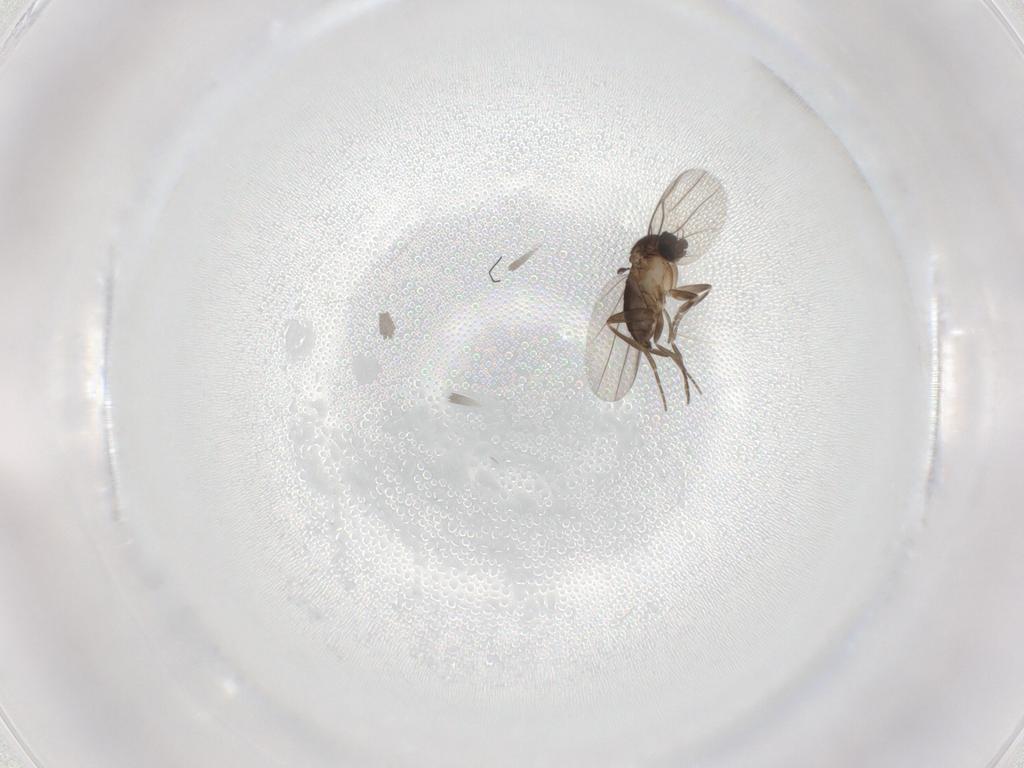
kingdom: Animalia
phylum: Arthropoda
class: Insecta
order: Diptera
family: Phoridae
